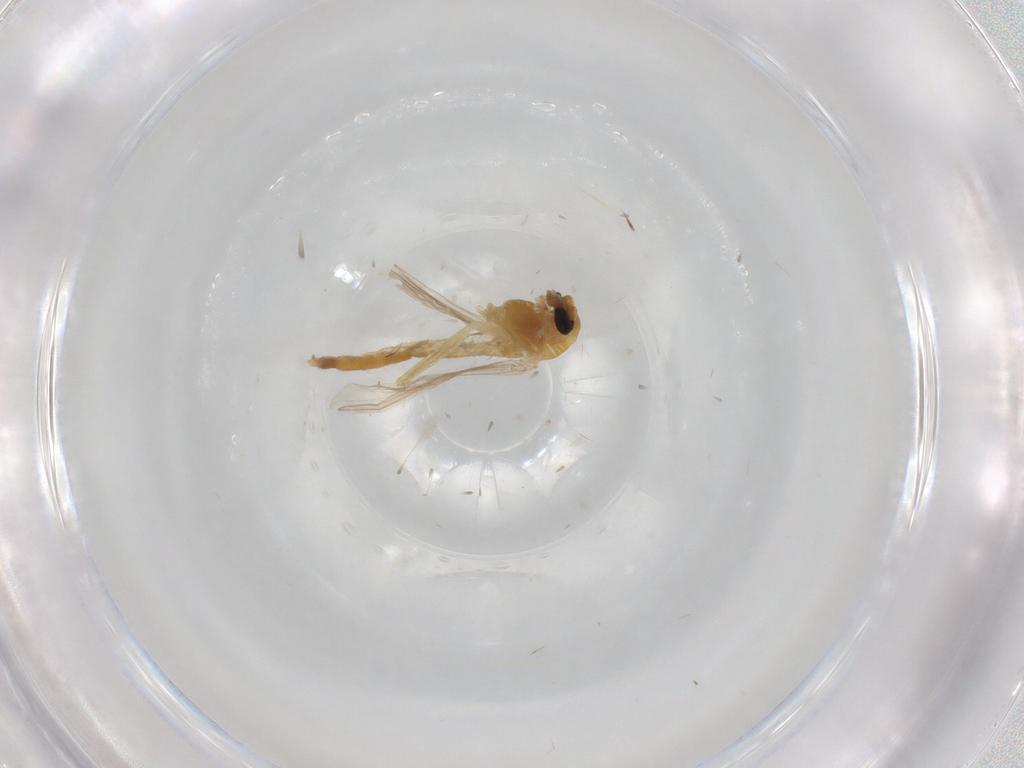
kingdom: Animalia
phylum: Arthropoda
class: Insecta
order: Diptera
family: Chironomidae
